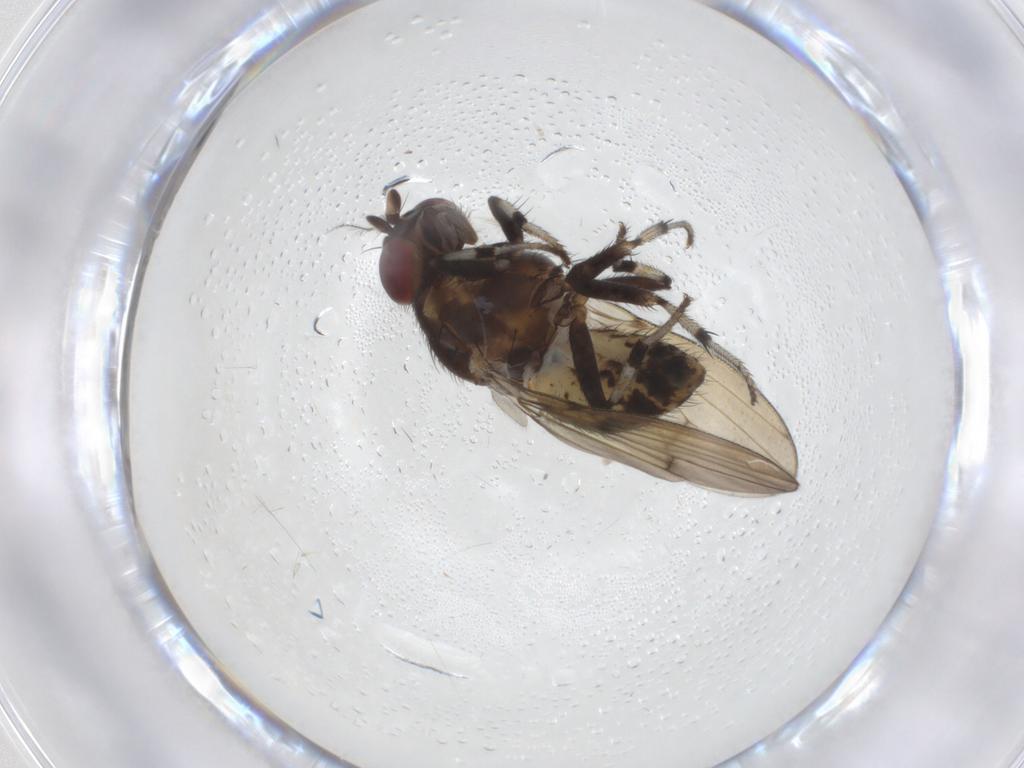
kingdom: Animalia
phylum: Arthropoda
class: Insecta
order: Diptera
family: Lauxaniidae
